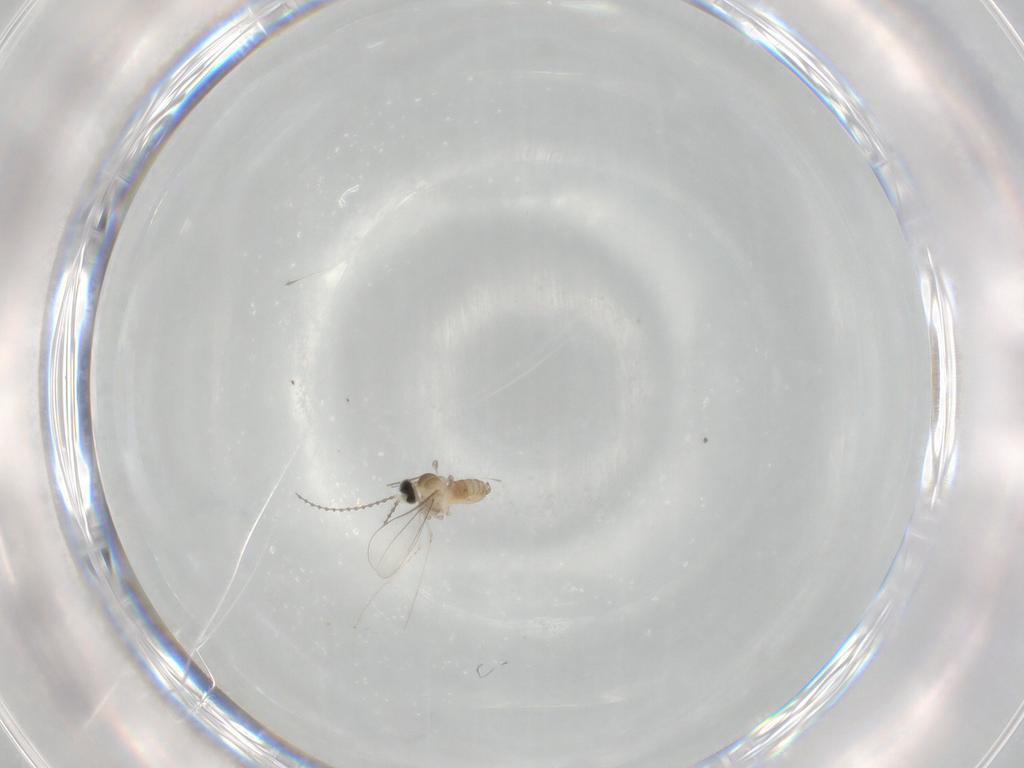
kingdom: Animalia
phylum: Arthropoda
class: Insecta
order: Diptera
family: Cecidomyiidae
